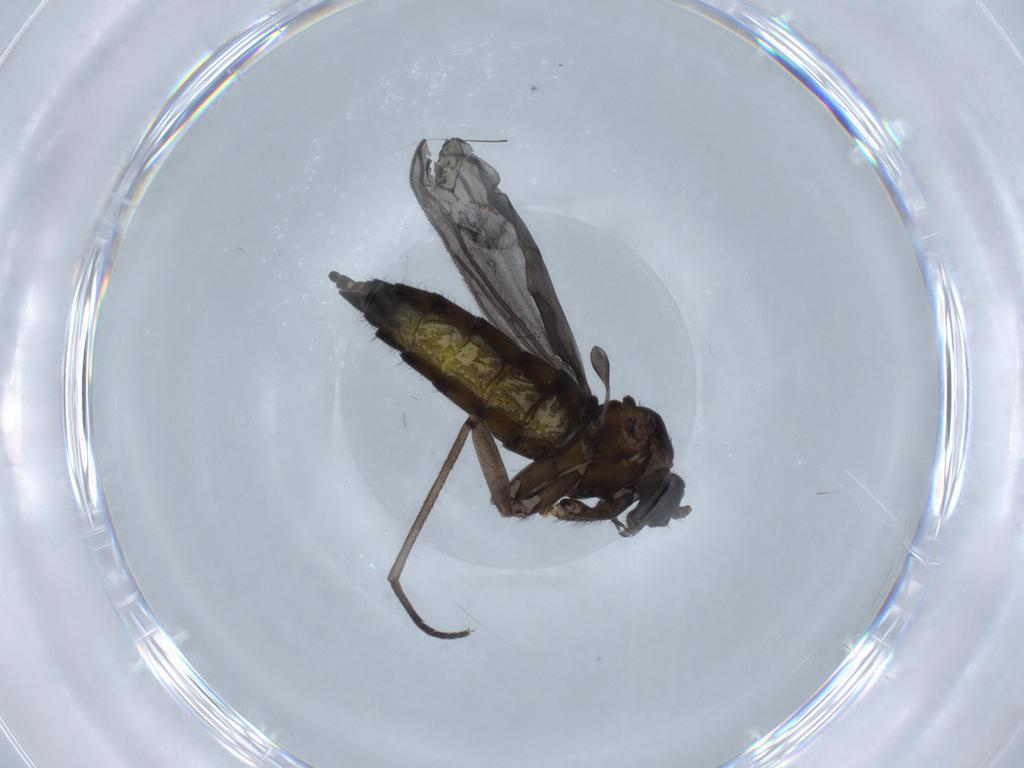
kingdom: Animalia
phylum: Arthropoda
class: Insecta
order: Diptera
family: Sciaridae
